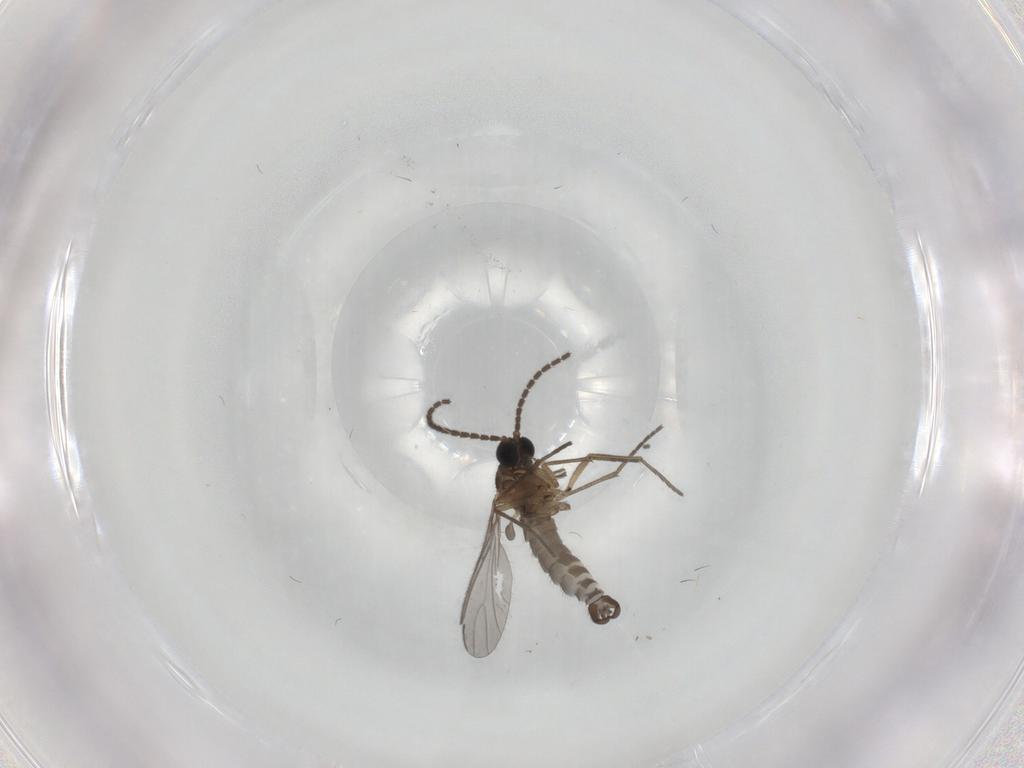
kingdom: Animalia
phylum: Arthropoda
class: Insecta
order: Diptera
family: Sciaridae
